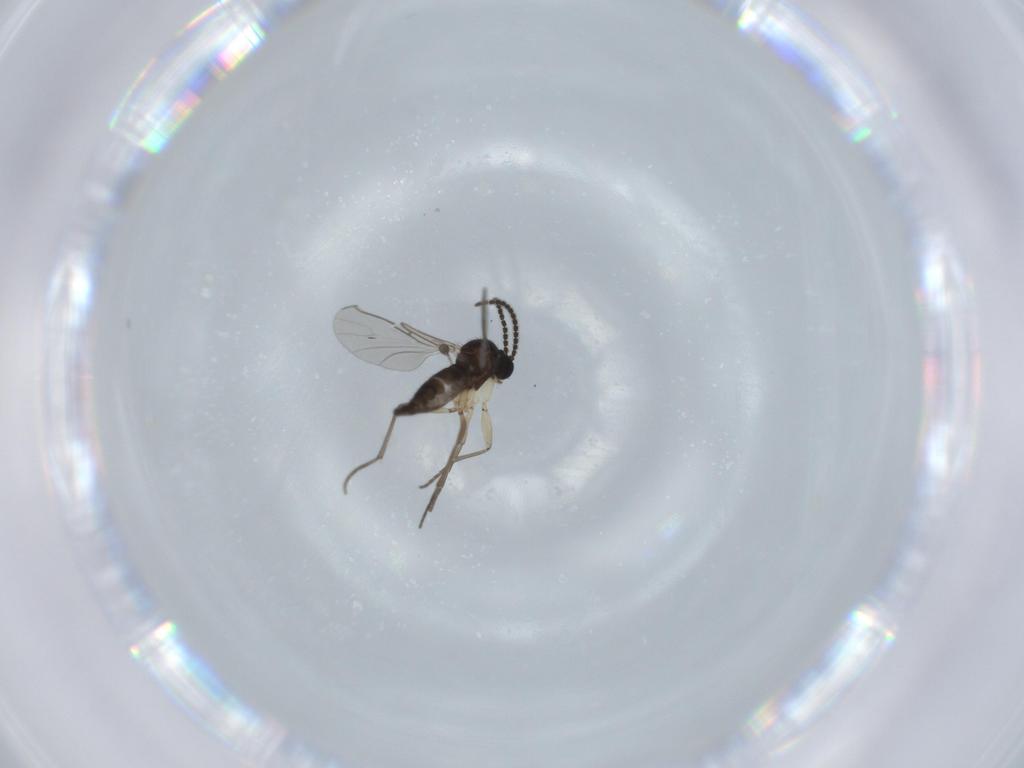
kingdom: Animalia
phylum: Arthropoda
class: Insecta
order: Diptera
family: Sciaridae
